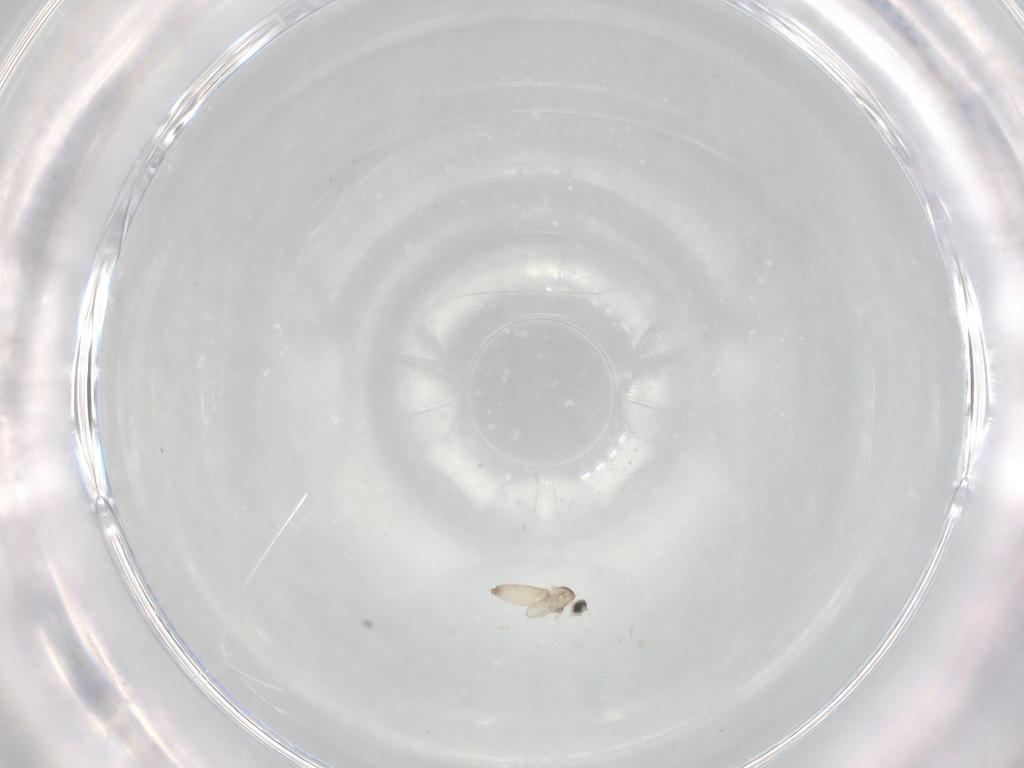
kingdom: Animalia
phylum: Arthropoda
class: Insecta
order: Diptera
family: Cecidomyiidae
